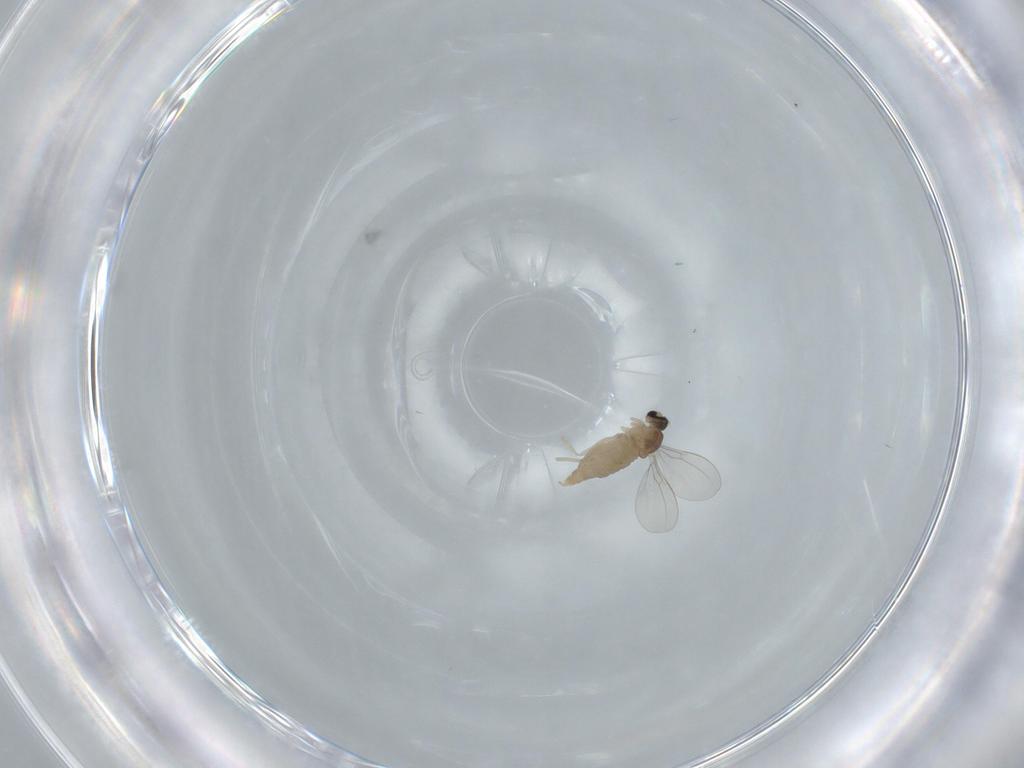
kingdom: Animalia
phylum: Arthropoda
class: Insecta
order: Diptera
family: Cecidomyiidae
